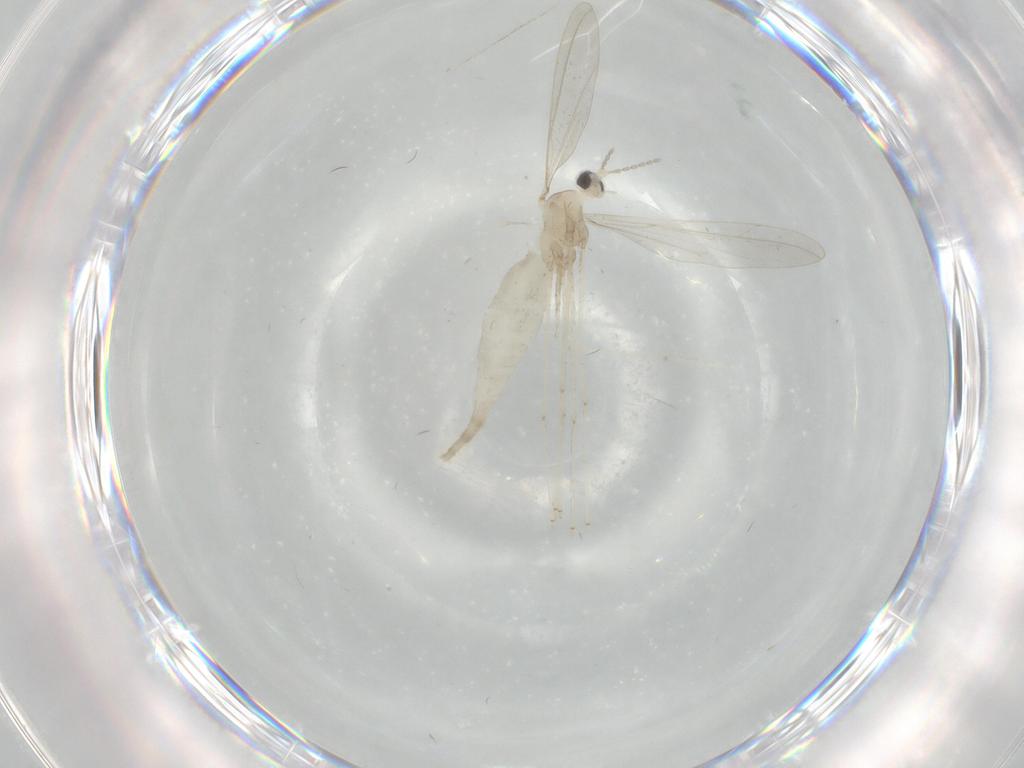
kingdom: Animalia
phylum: Arthropoda
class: Insecta
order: Diptera
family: Cecidomyiidae
